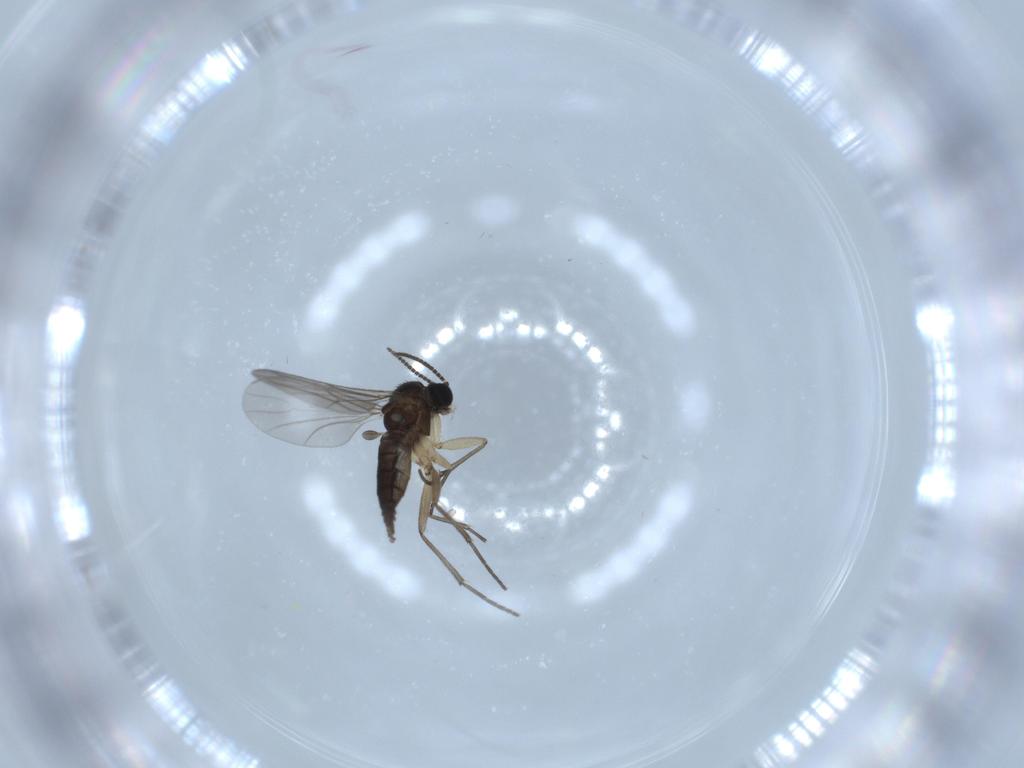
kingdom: Animalia
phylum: Arthropoda
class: Insecta
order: Diptera
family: Sciaridae
